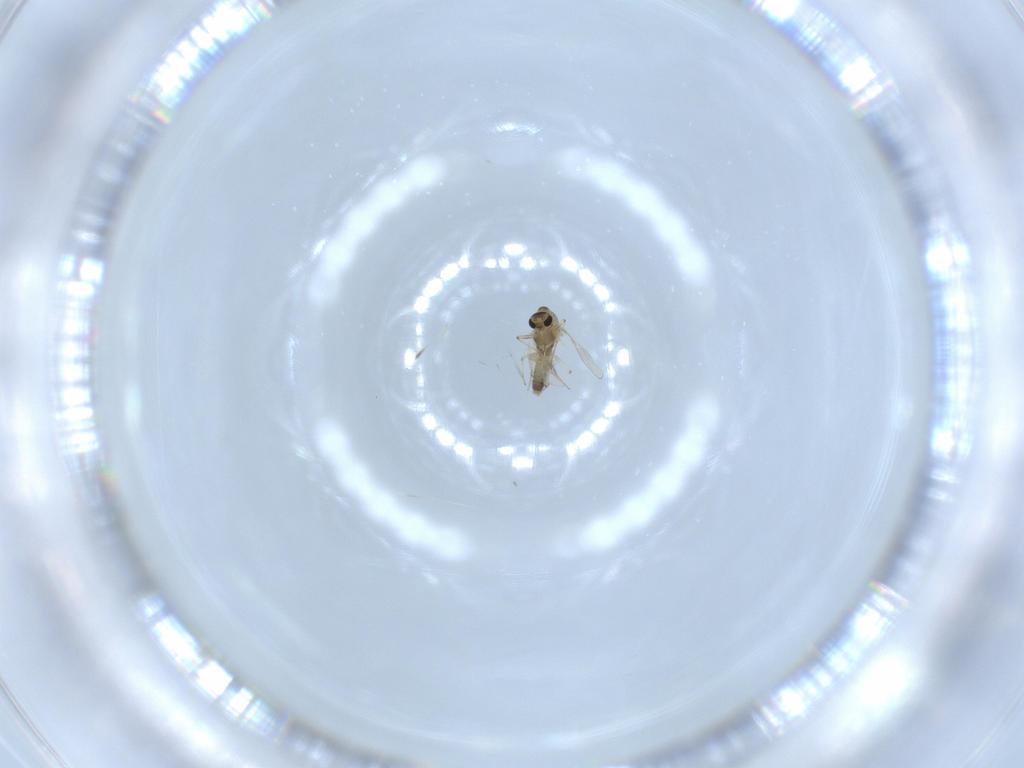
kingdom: Animalia
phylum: Arthropoda
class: Insecta
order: Diptera
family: Chironomidae
